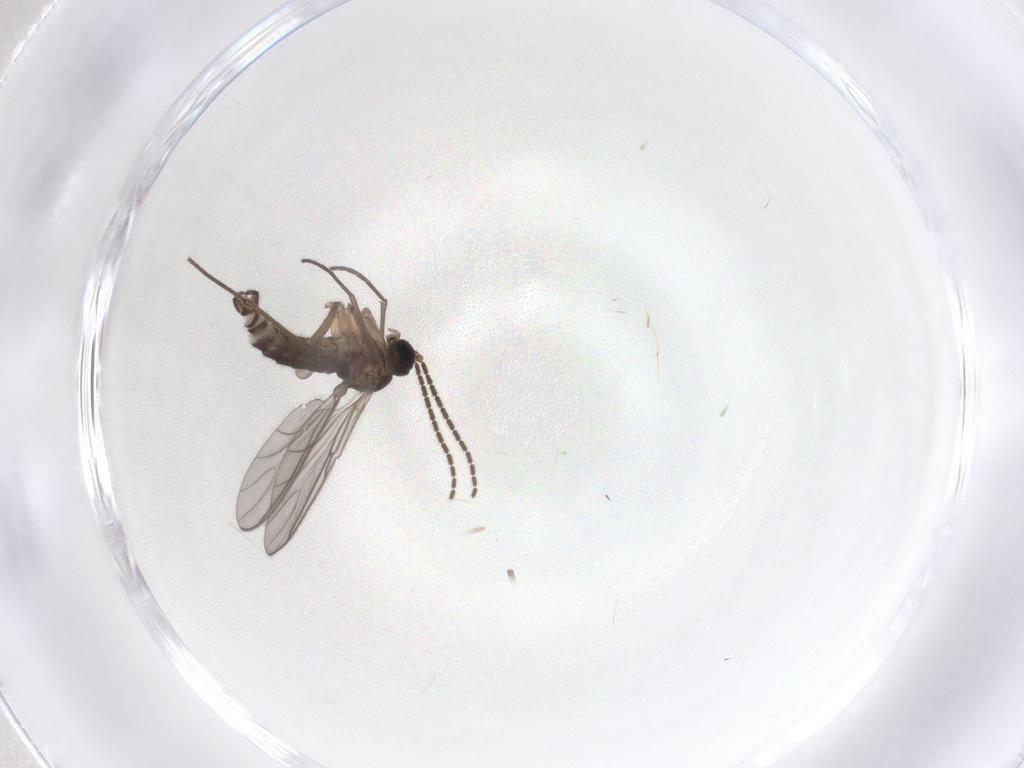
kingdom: Animalia
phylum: Arthropoda
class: Insecta
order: Diptera
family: Sciaridae
